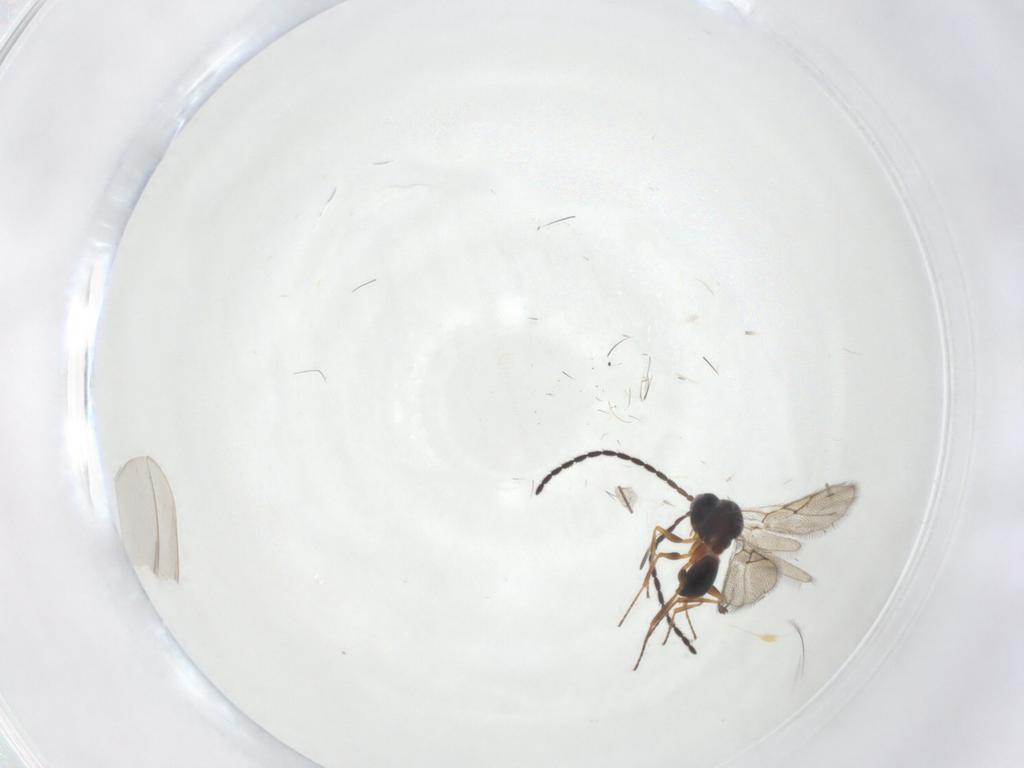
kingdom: Animalia
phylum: Arthropoda
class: Insecta
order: Hymenoptera
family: Figitidae
